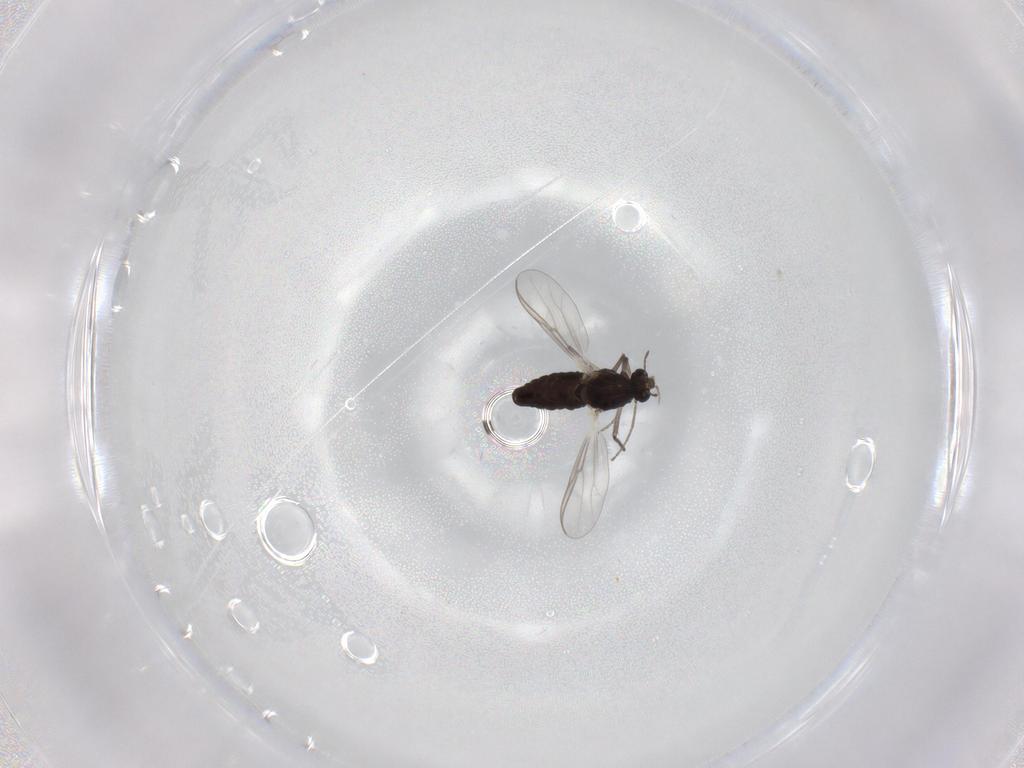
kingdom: Animalia
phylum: Arthropoda
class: Insecta
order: Diptera
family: Chironomidae
